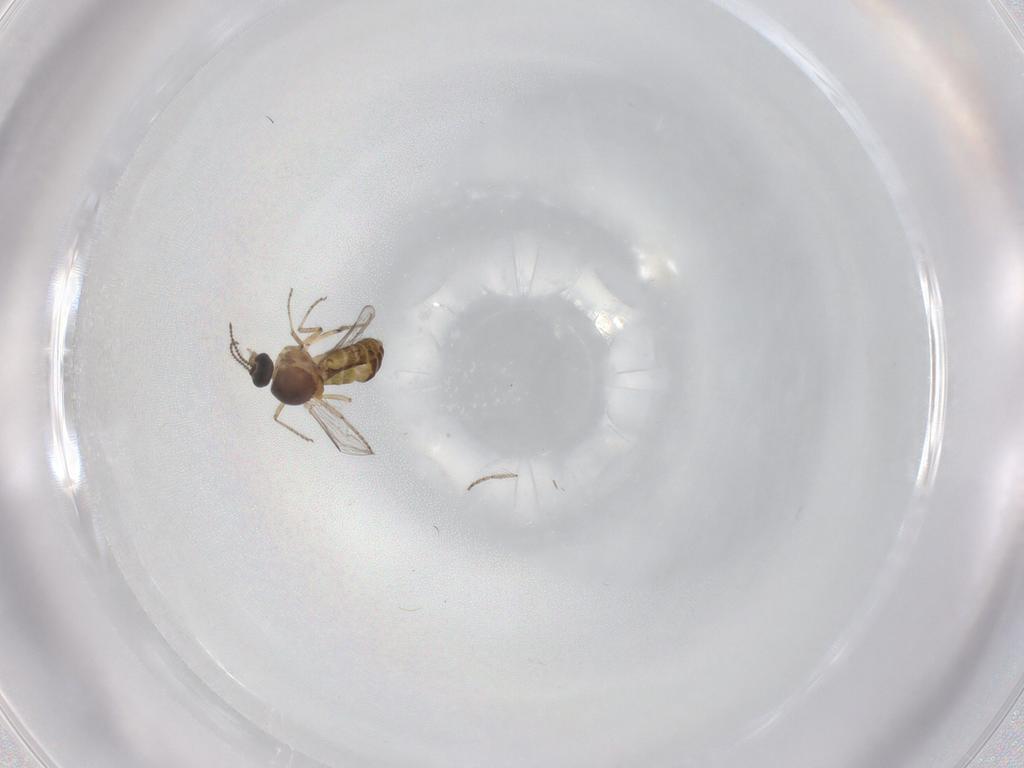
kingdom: Animalia
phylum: Arthropoda
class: Insecta
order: Diptera
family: Ceratopogonidae
